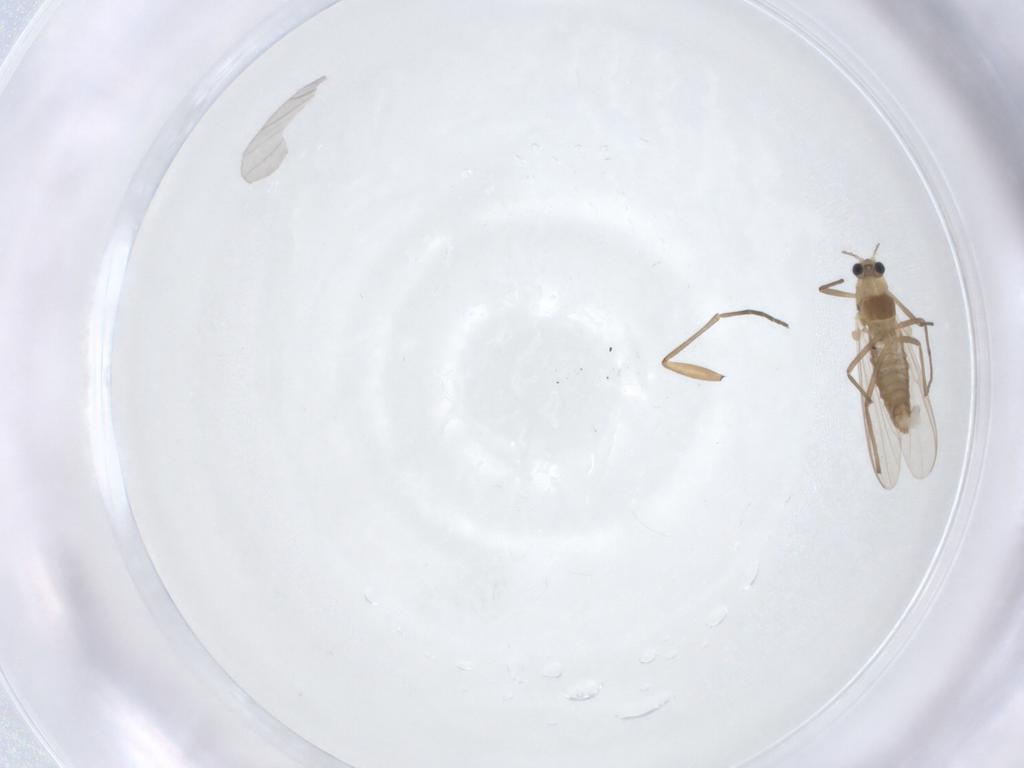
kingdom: Animalia
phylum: Arthropoda
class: Insecta
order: Diptera
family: Chironomidae
